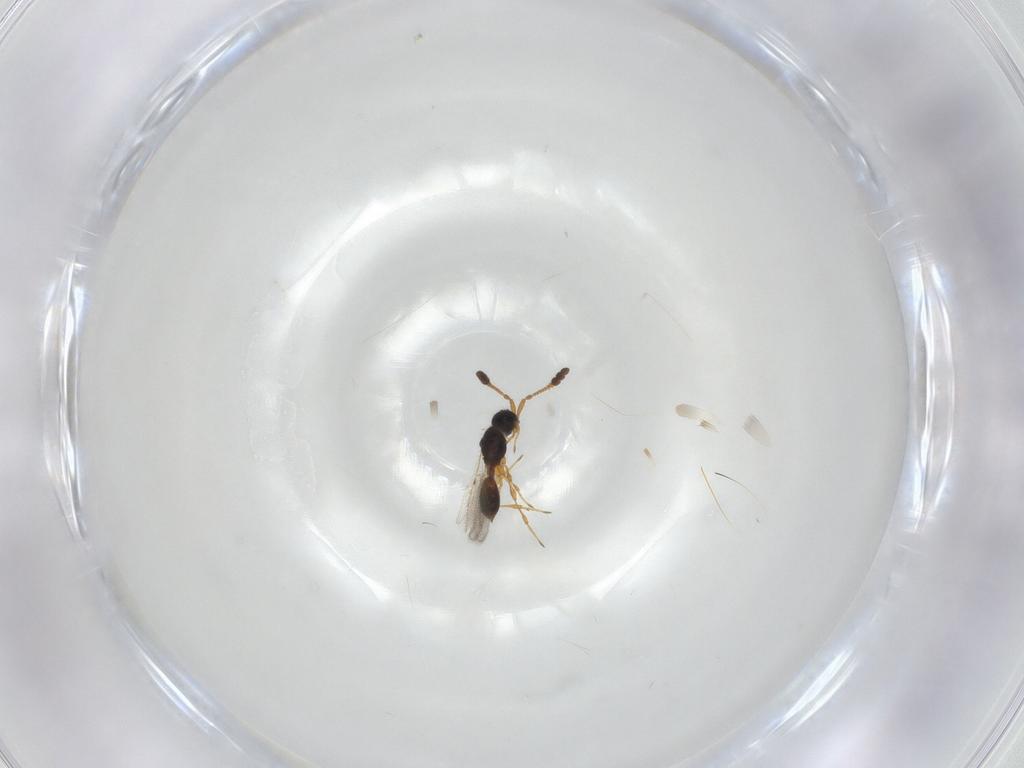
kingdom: Animalia
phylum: Arthropoda
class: Insecta
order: Hymenoptera
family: Diapriidae
